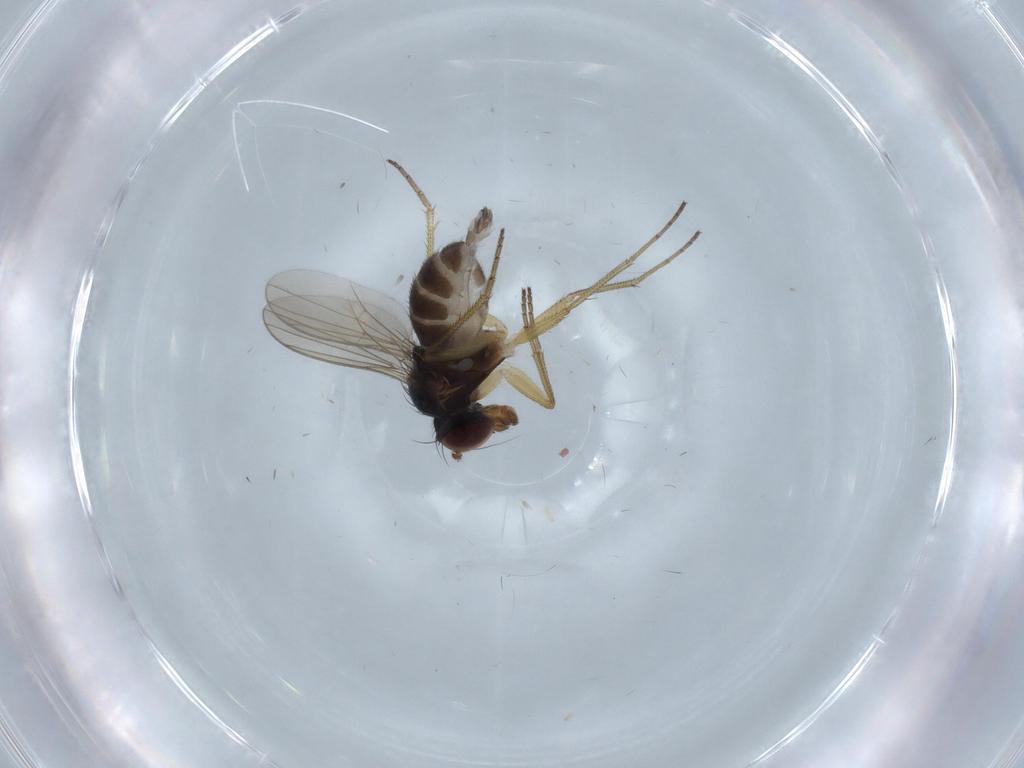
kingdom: Animalia
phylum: Arthropoda
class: Insecta
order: Diptera
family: Dolichopodidae
